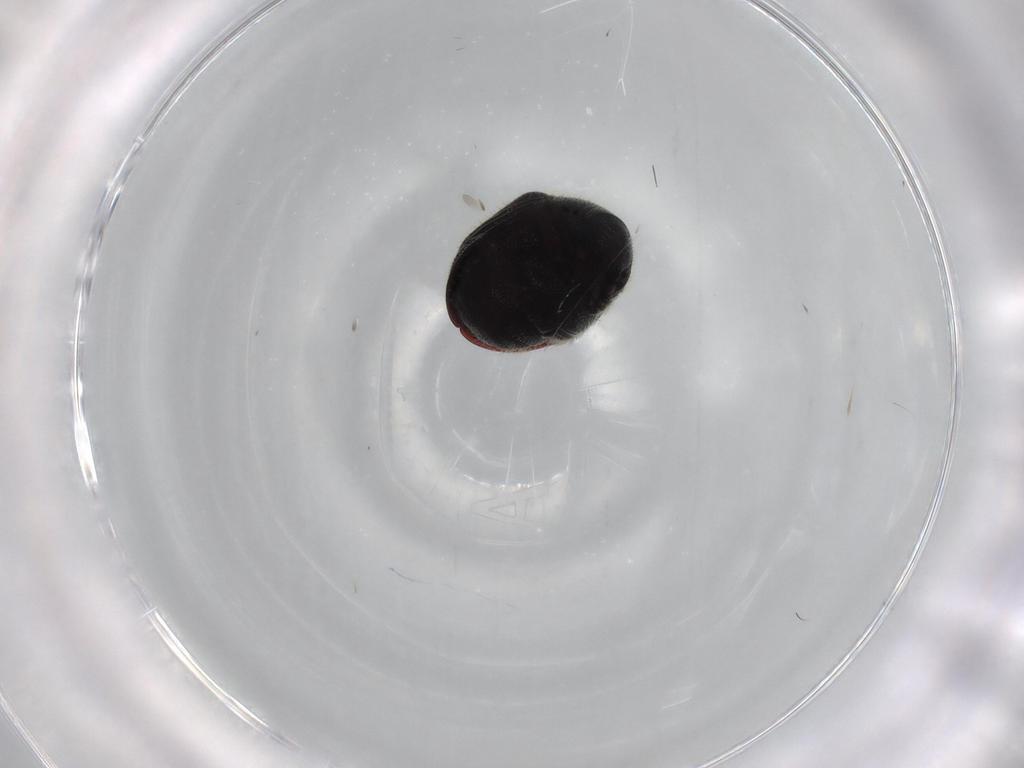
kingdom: Animalia
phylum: Arthropoda
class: Insecta
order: Coleoptera
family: Ptinidae
